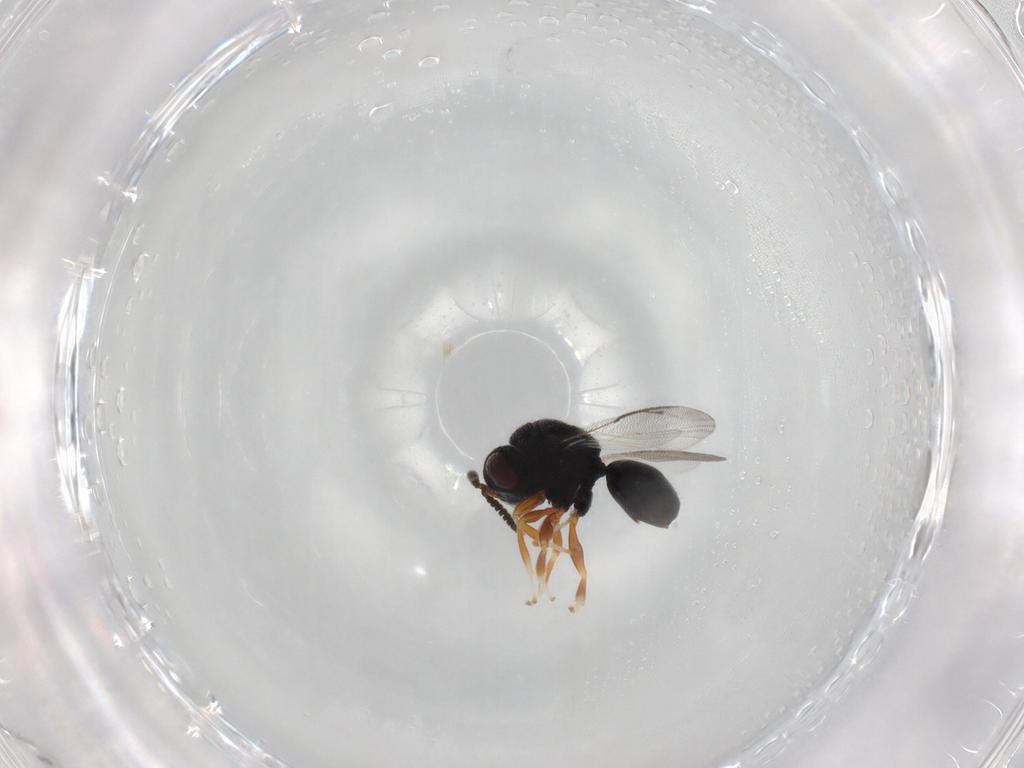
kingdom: Animalia
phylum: Arthropoda
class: Insecta
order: Hymenoptera
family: Eurytomidae
